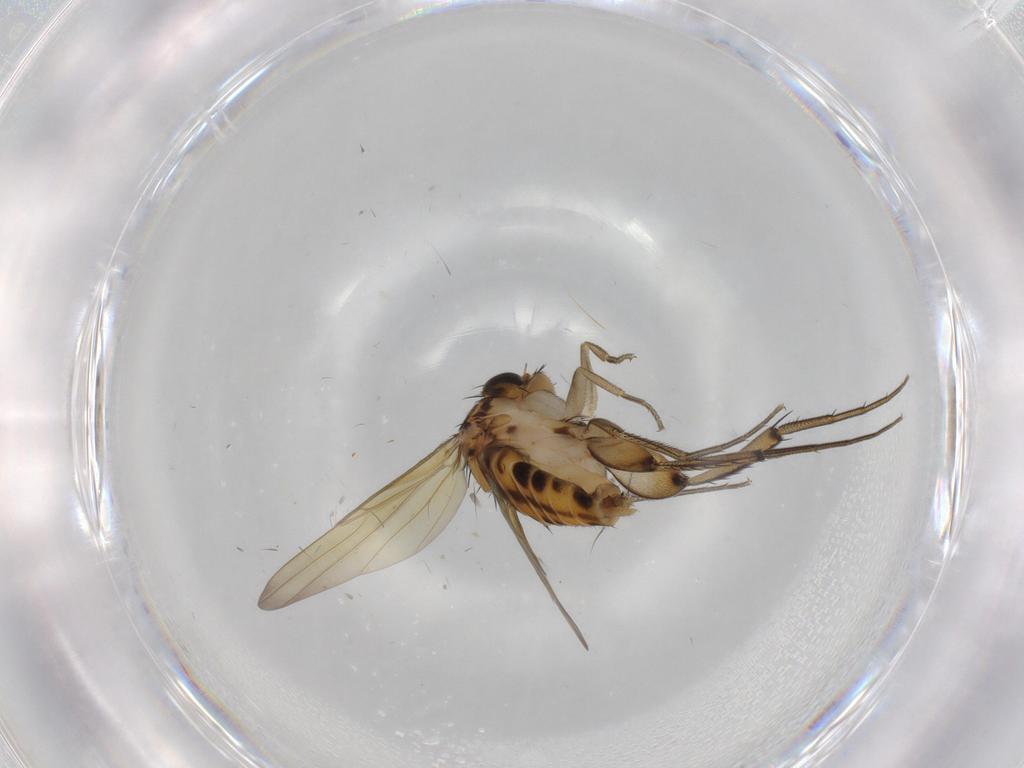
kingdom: Animalia
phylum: Arthropoda
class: Insecta
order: Diptera
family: Phoridae
